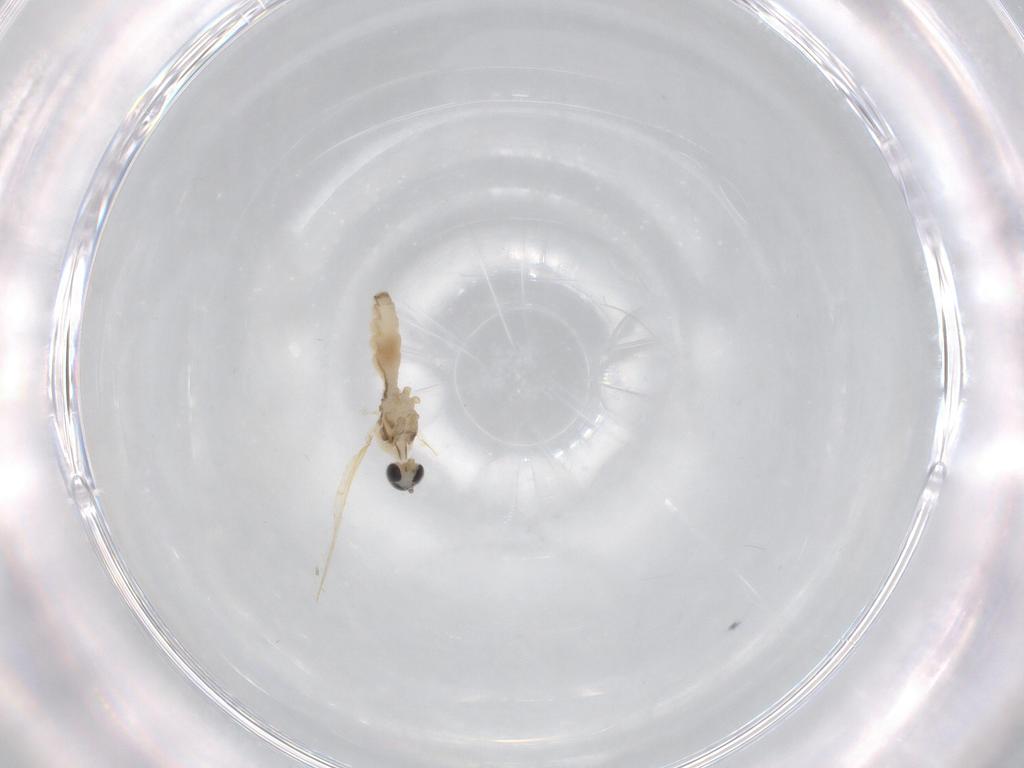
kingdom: Animalia
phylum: Arthropoda
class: Insecta
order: Diptera
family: Cecidomyiidae
